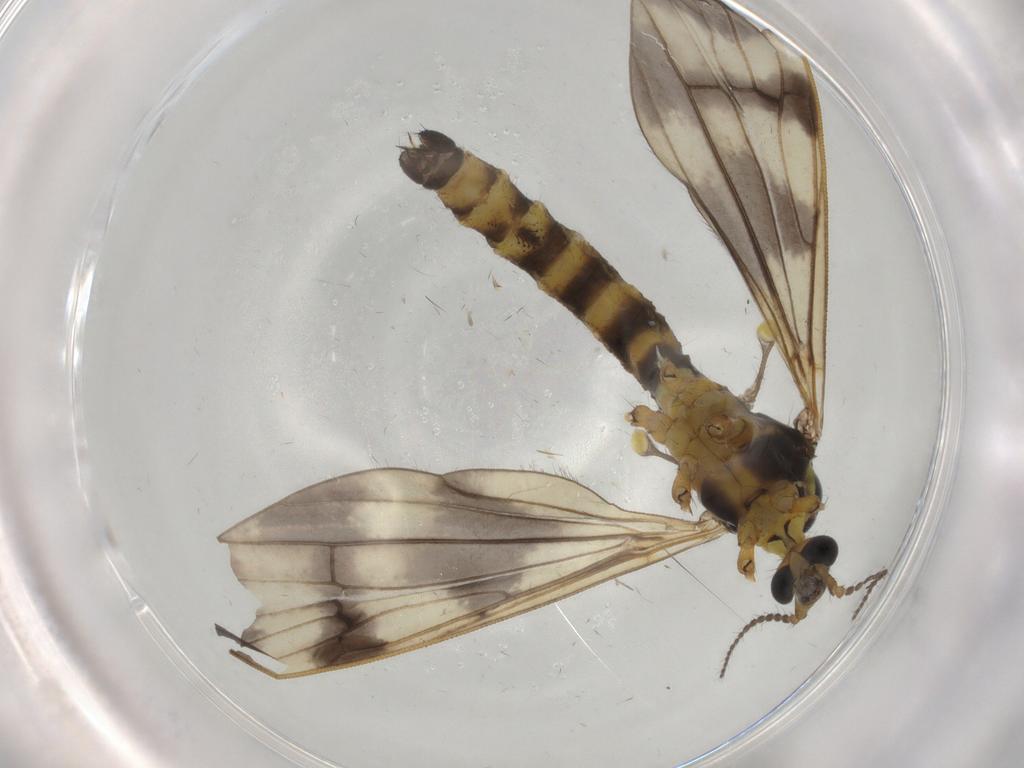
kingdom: Animalia
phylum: Arthropoda
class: Insecta
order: Diptera
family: Limoniidae
